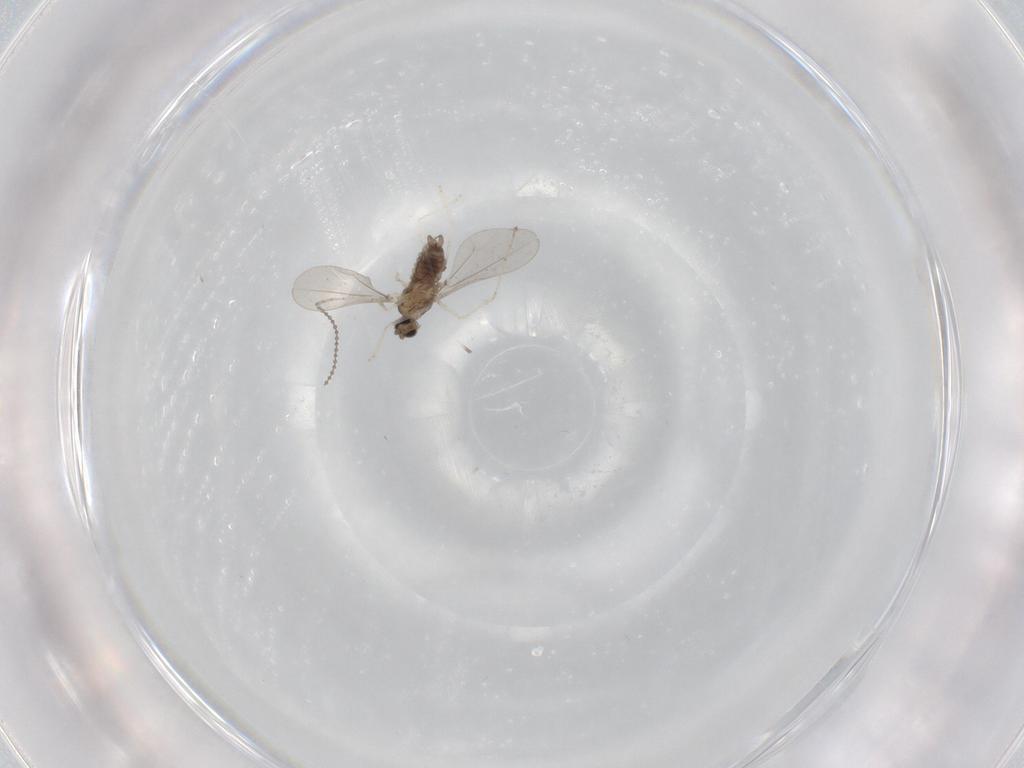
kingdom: Animalia
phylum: Arthropoda
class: Insecta
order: Diptera
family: Cecidomyiidae
